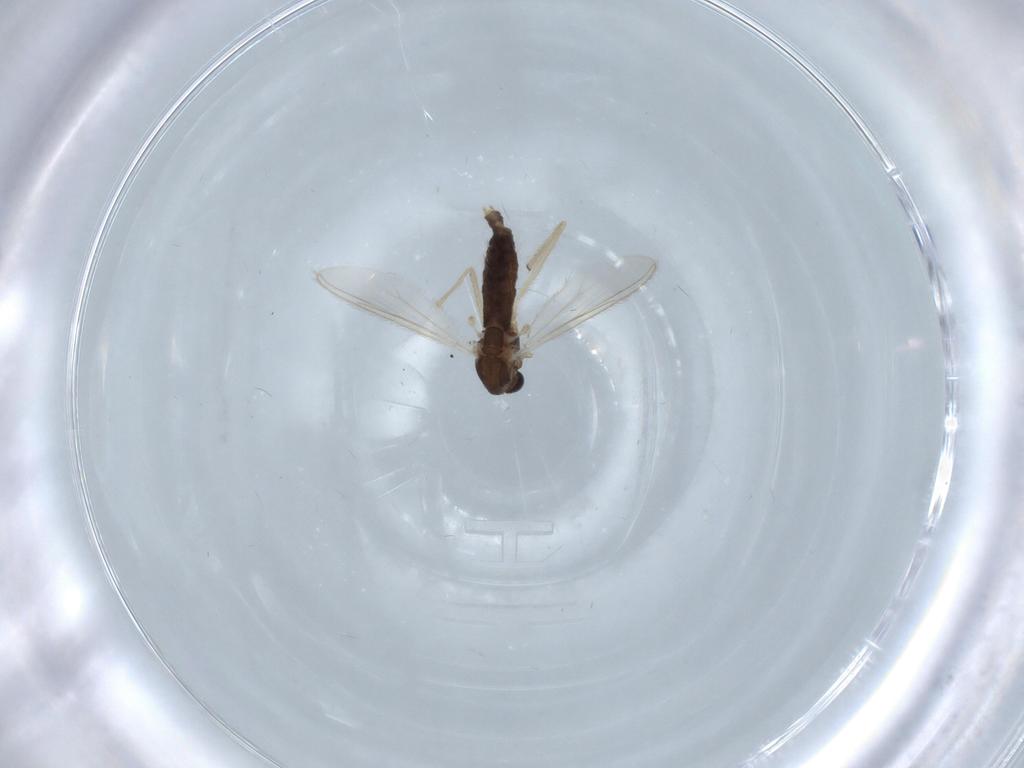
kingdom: Animalia
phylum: Arthropoda
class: Insecta
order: Diptera
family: Chironomidae
